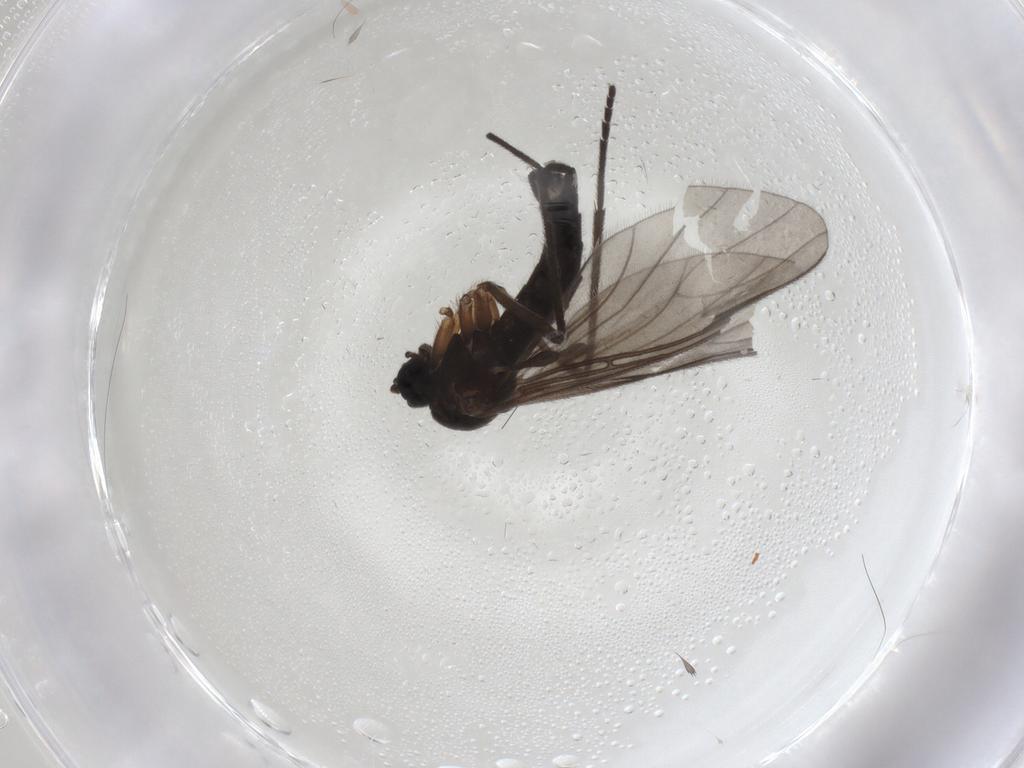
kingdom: Animalia
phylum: Arthropoda
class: Insecta
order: Diptera
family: Sciaridae
